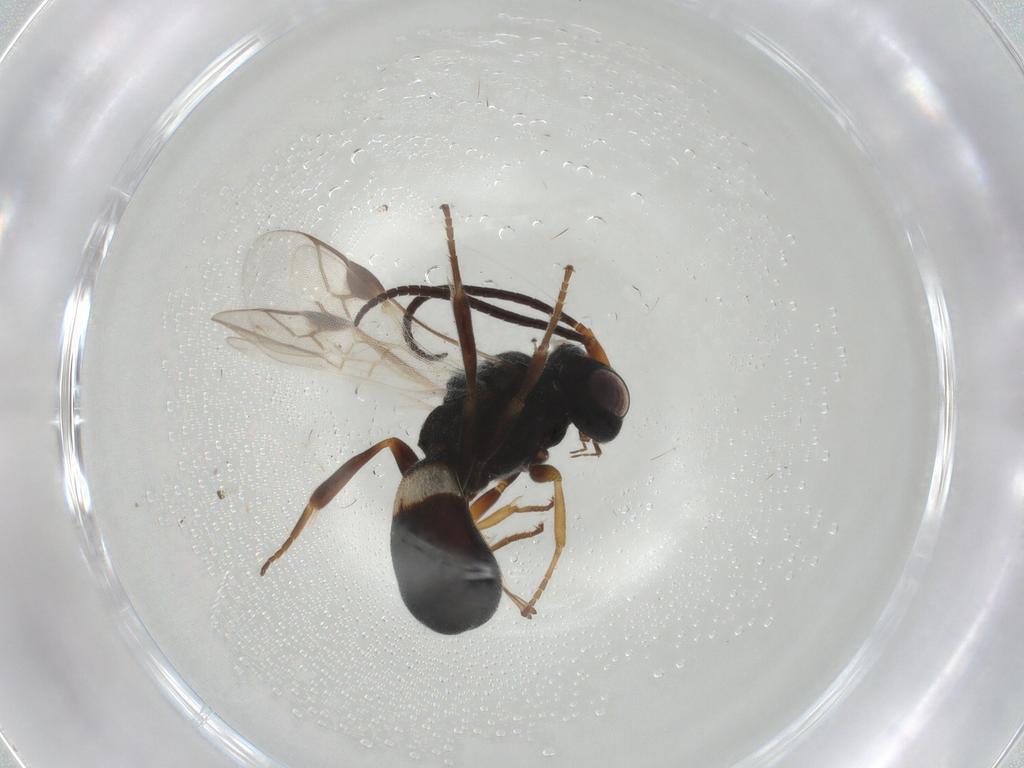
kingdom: Animalia
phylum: Arthropoda
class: Insecta
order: Hymenoptera
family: Braconidae
